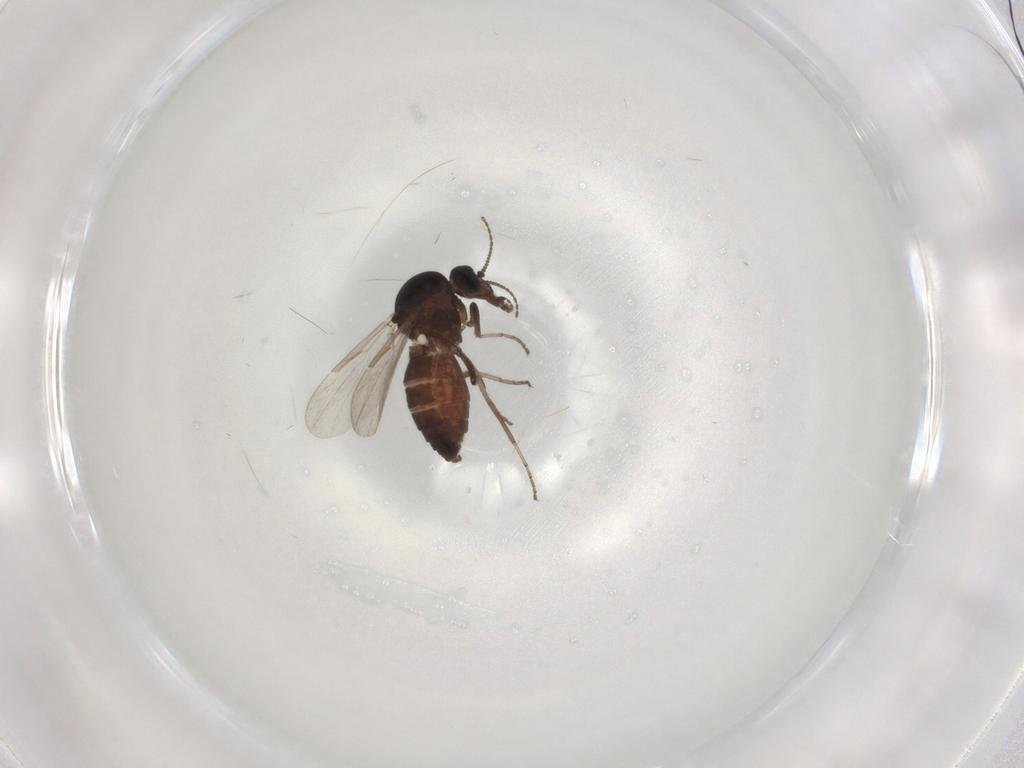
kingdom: Animalia
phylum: Arthropoda
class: Insecta
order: Diptera
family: Ceratopogonidae
